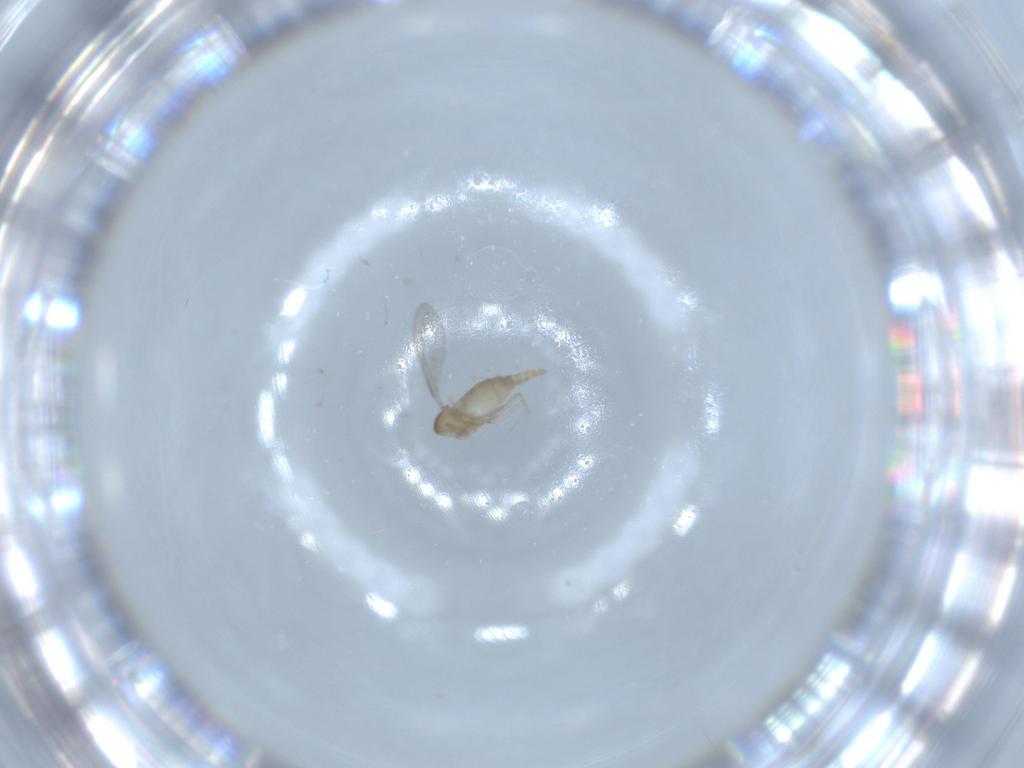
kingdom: Animalia
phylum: Arthropoda
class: Insecta
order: Diptera
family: Cecidomyiidae
